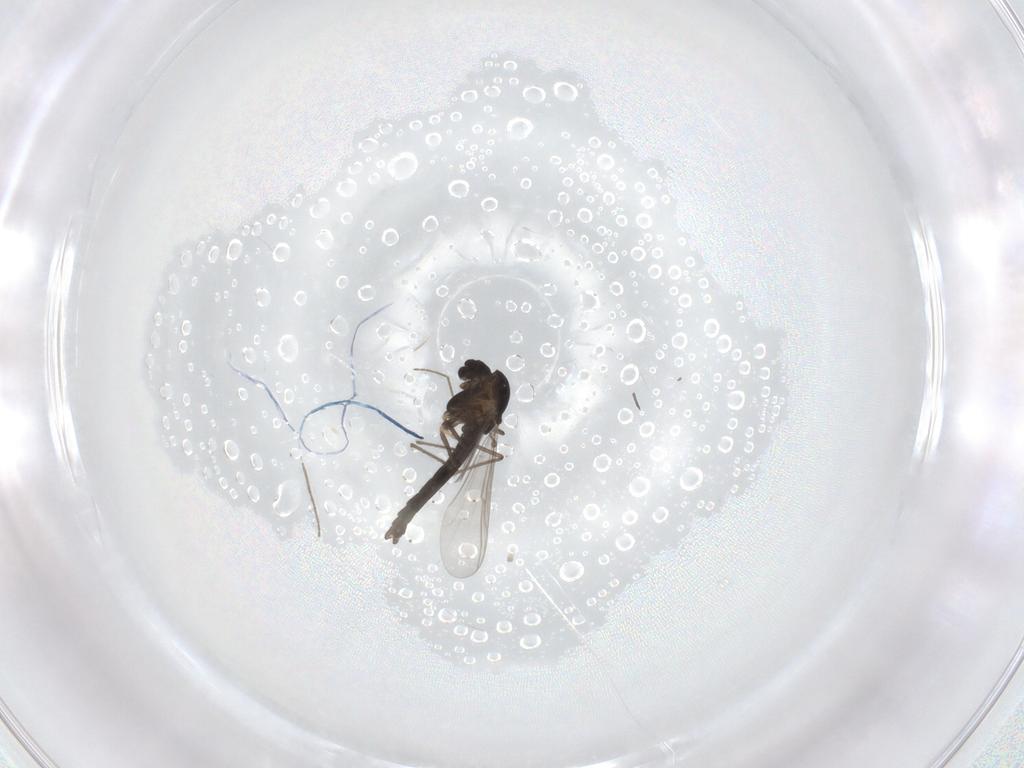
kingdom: Animalia
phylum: Arthropoda
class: Insecta
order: Diptera
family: Chironomidae
